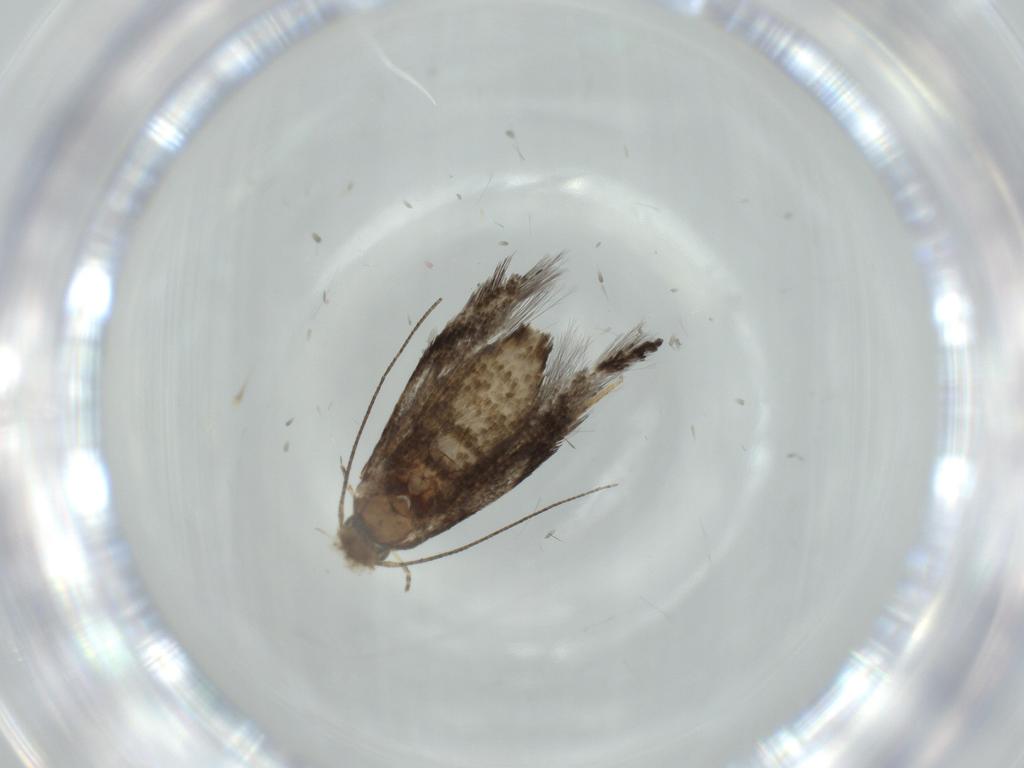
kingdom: Animalia
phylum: Arthropoda
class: Insecta
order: Lepidoptera
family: Elachistidae
